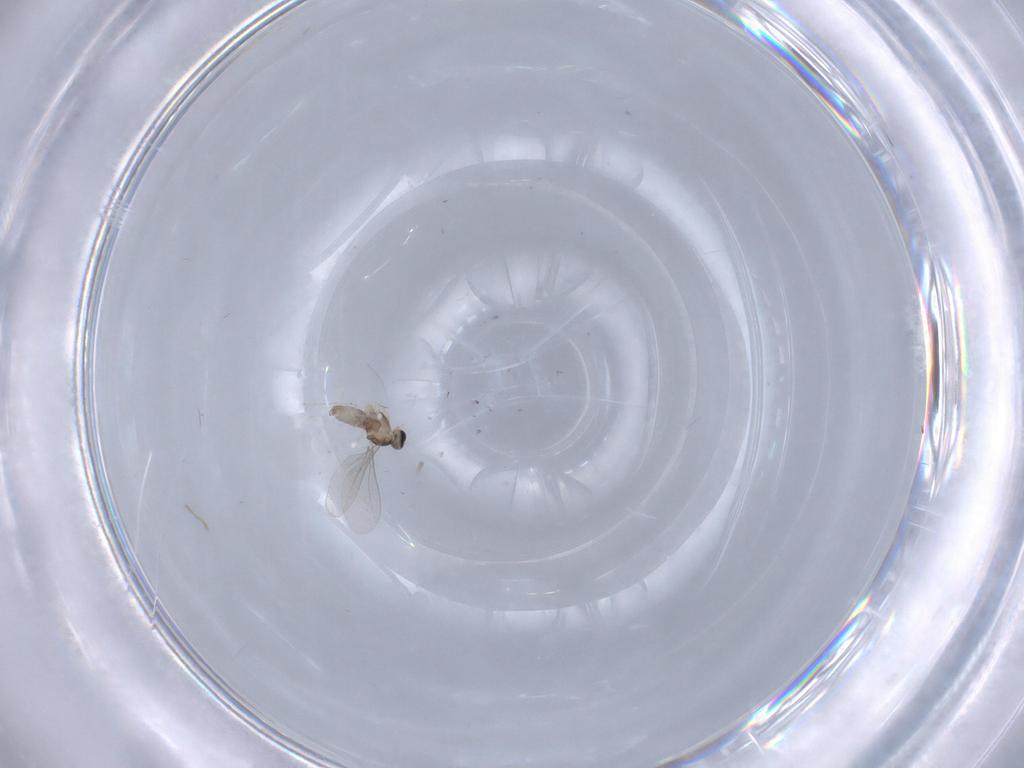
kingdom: Animalia
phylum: Arthropoda
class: Insecta
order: Diptera
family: Ceratopogonidae
